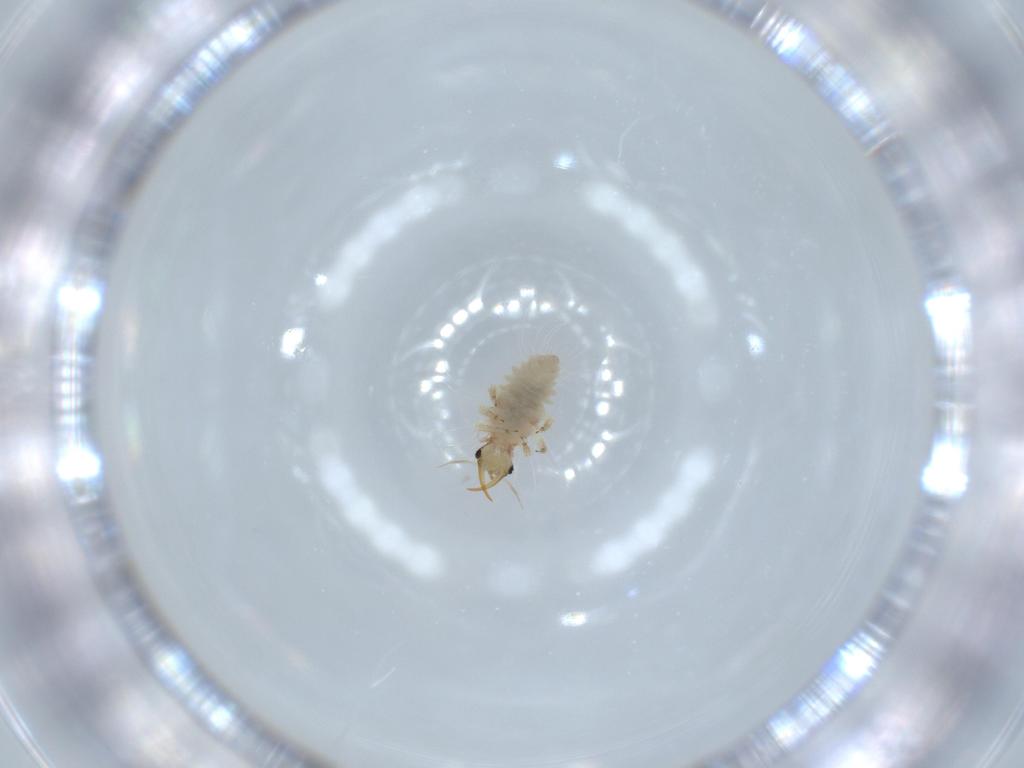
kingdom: Animalia
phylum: Arthropoda
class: Insecta
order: Neuroptera
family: Chrysopidae
